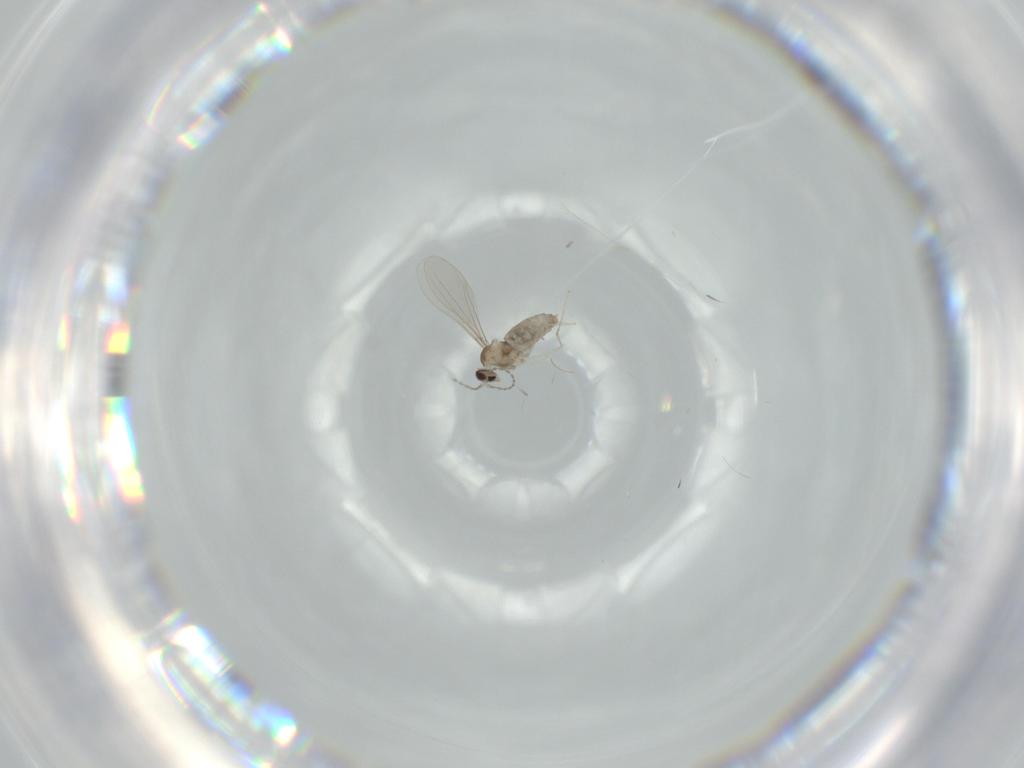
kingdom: Animalia
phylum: Arthropoda
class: Insecta
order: Diptera
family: Cecidomyiidae
